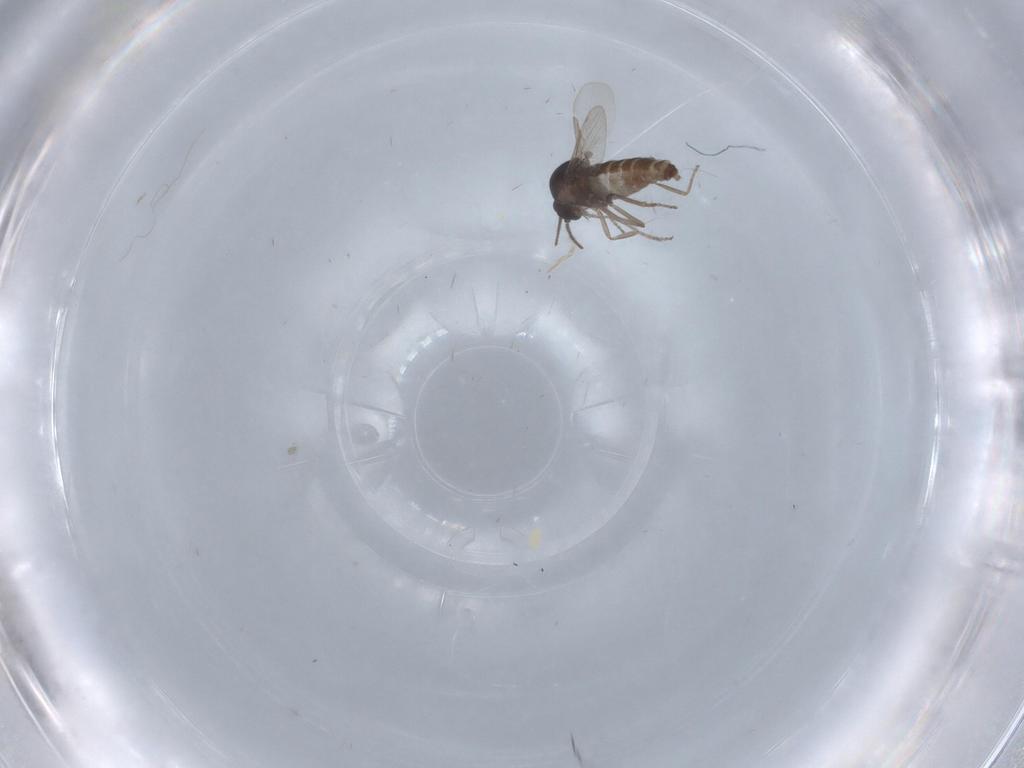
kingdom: Animalia
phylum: Arthropoda
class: Insecta
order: Diptera
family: Ceratopogonidae
